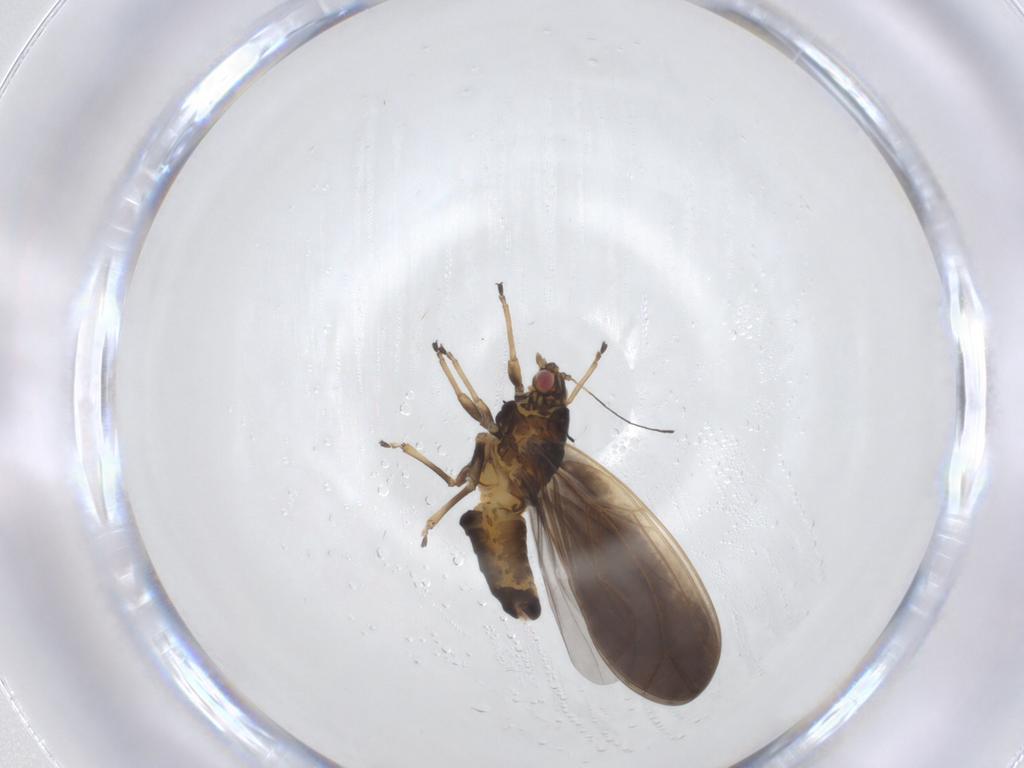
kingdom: Animalia
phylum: Arthropoda
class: Insecta
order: Hemiptera
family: Triozidae
